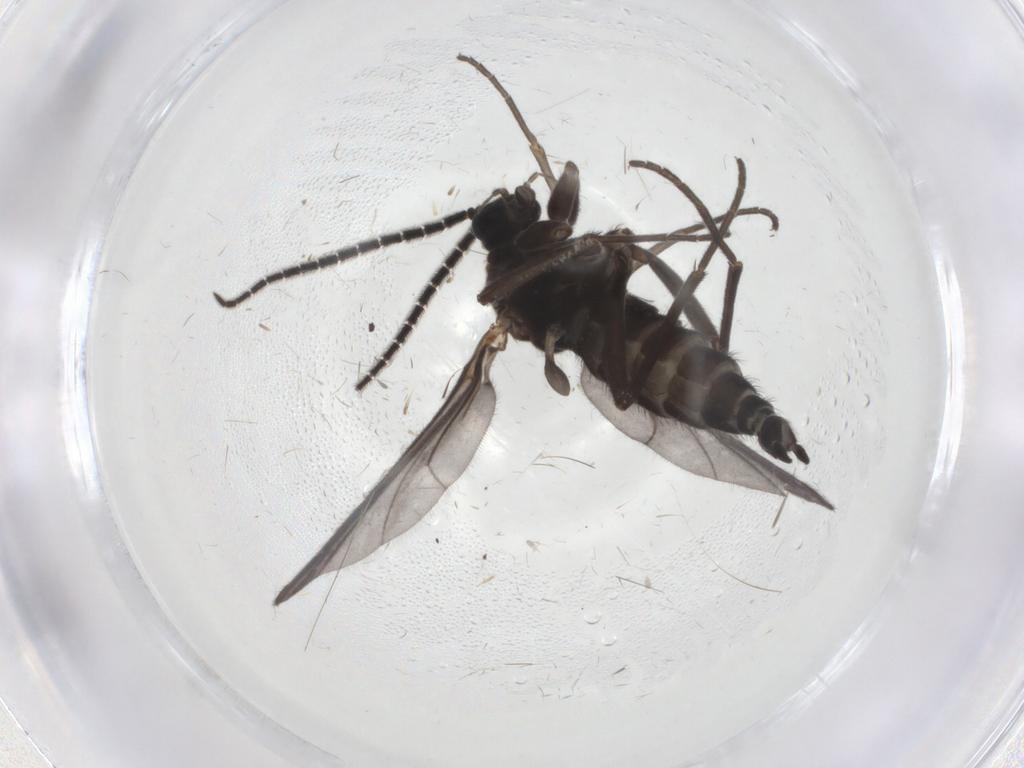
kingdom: Animalia
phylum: Arthropoda
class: Insecta
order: Diptera
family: Sciaridae
